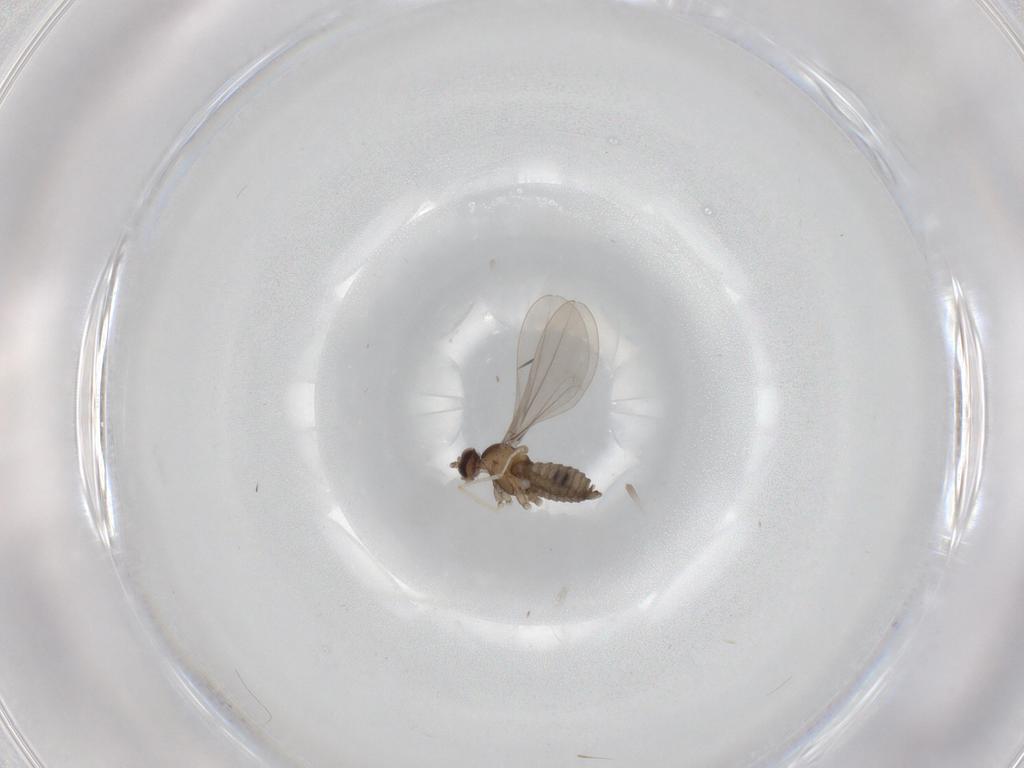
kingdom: Animalia
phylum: Arthropoda
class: Insecta
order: Diptera
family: Cecidomyiidae
